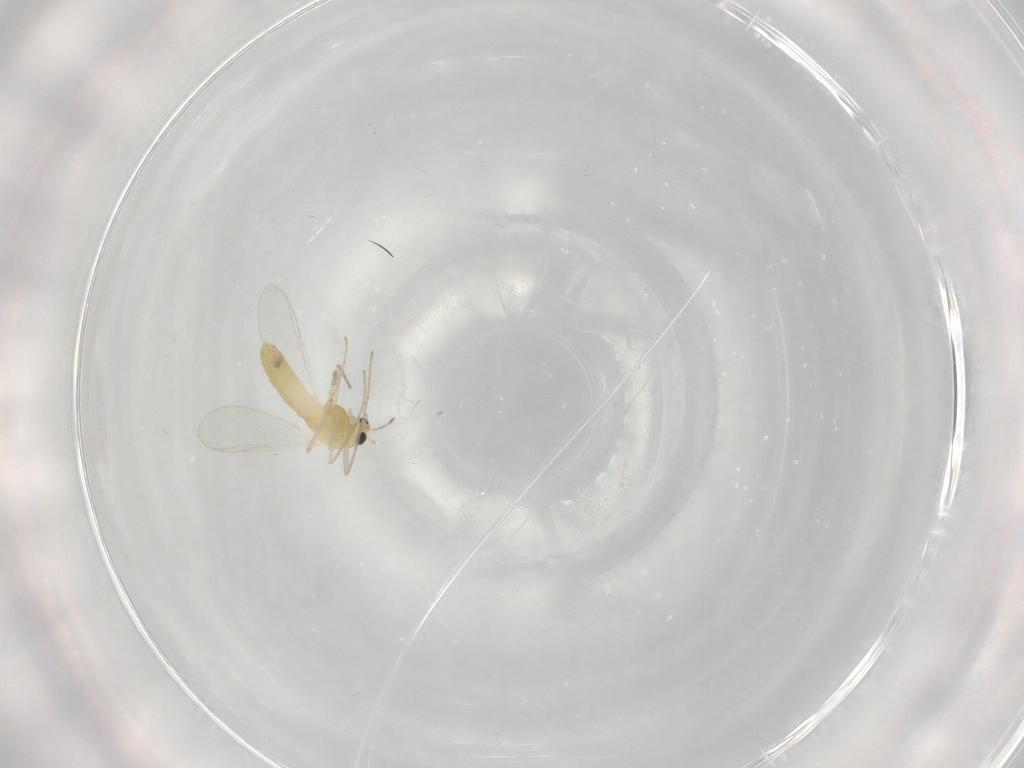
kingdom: Animalia
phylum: Arthropoda
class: Insecta
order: Diptera
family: Phoridae
